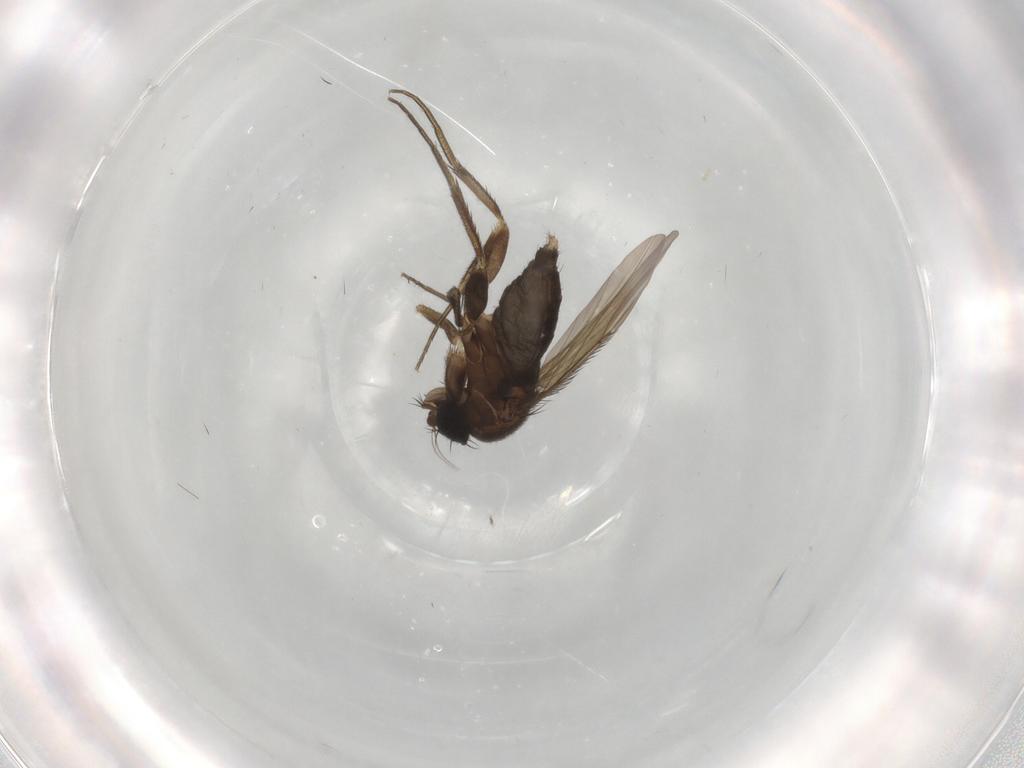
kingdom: Animalia
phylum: Arthropoda
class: Insecta
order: Diptera
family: Phoridae
